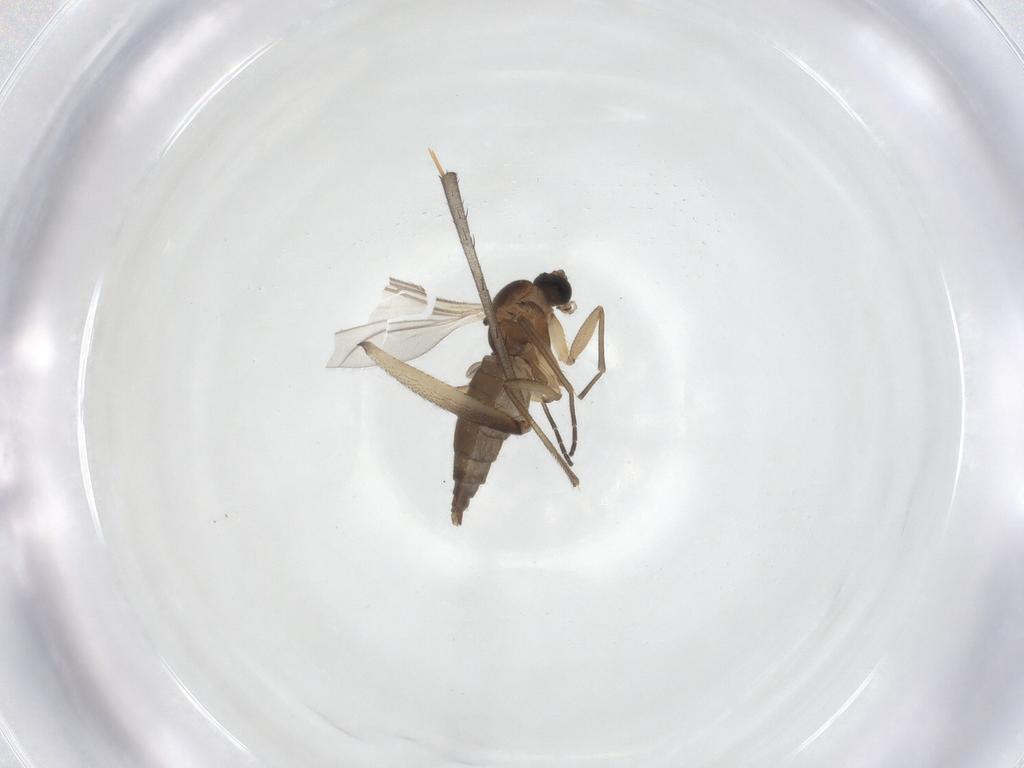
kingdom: Animalia
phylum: Arthropoda
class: Insecta
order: Diptera
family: Sciaridae
